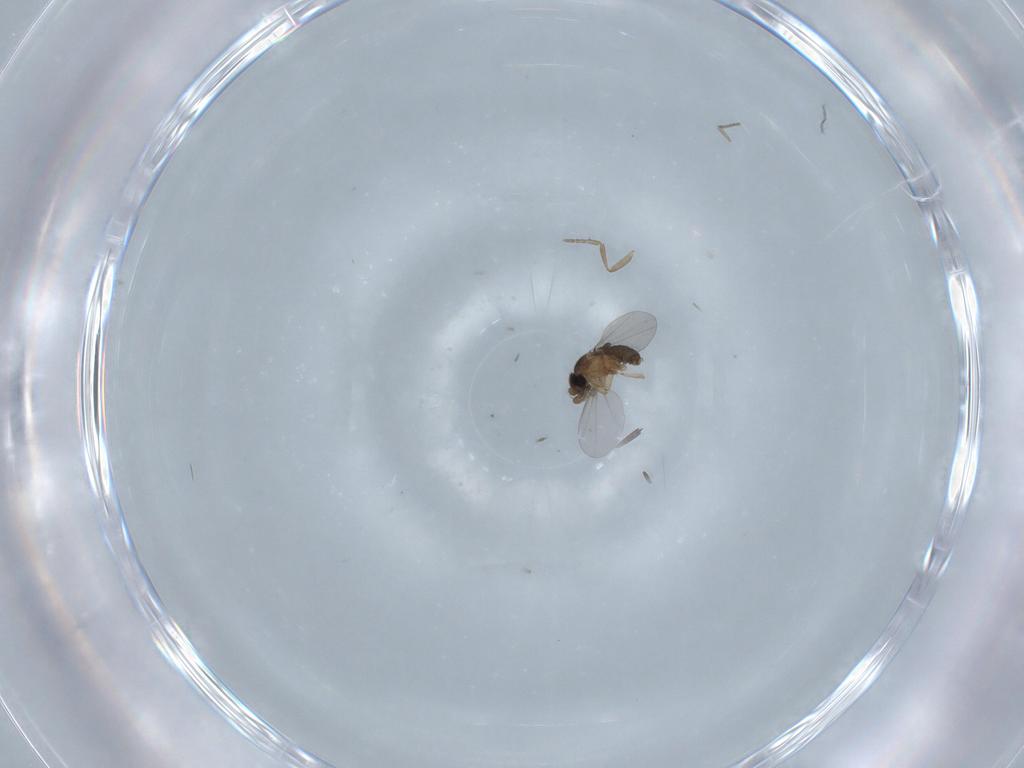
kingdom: Animalia
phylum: Arthropoda
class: Insecta
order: Diptera
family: Phoridae
